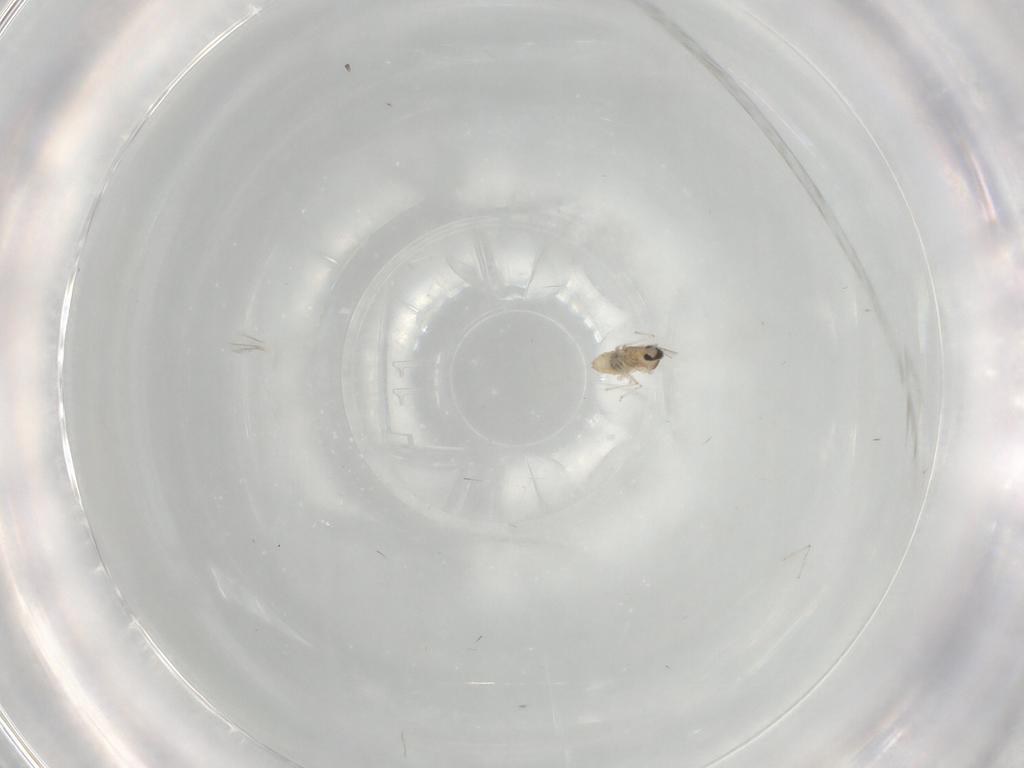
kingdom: Animalia
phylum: Arthropoda
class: Insecta
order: Diptera
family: Cecidomyiidae
